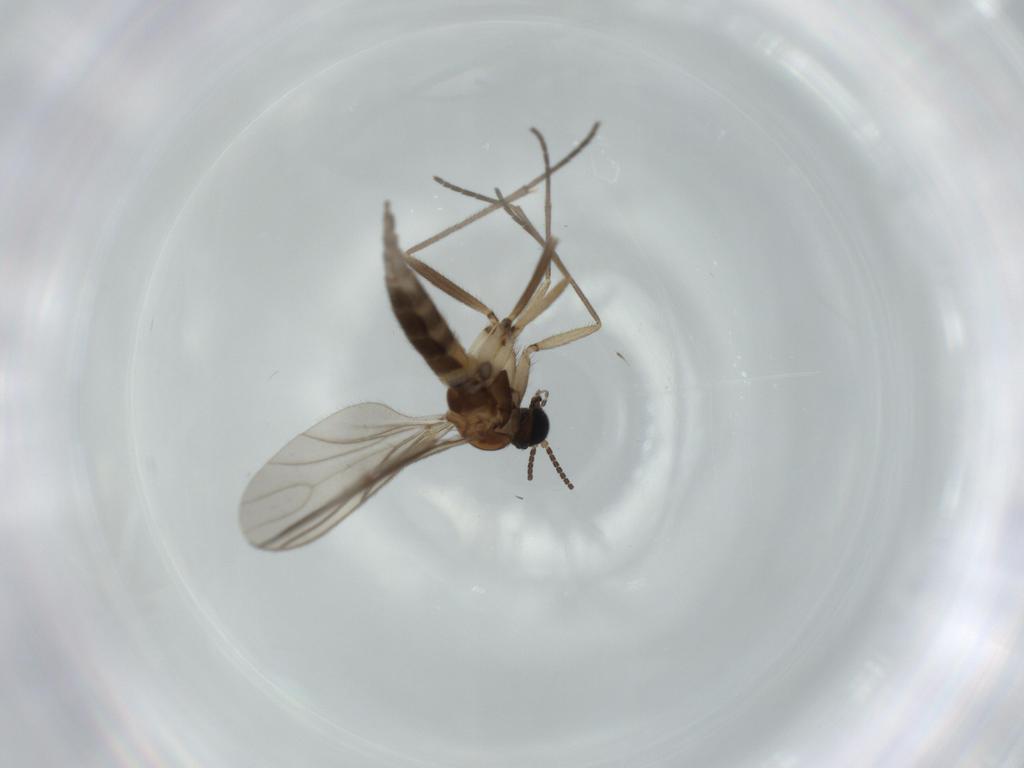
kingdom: Animalia
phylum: Arthropoda
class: Insecta
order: Diptera
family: Sciaridae
